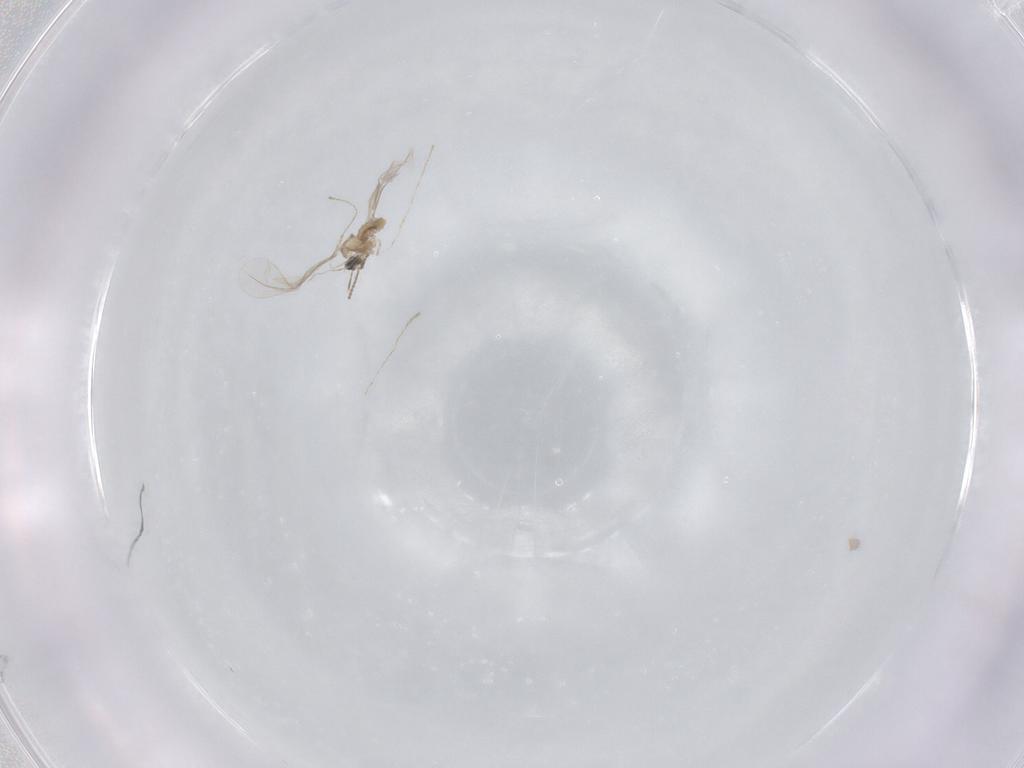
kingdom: Animalia
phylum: Arthropoda
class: Insecta
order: Diptera
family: Cecidomyiidae
